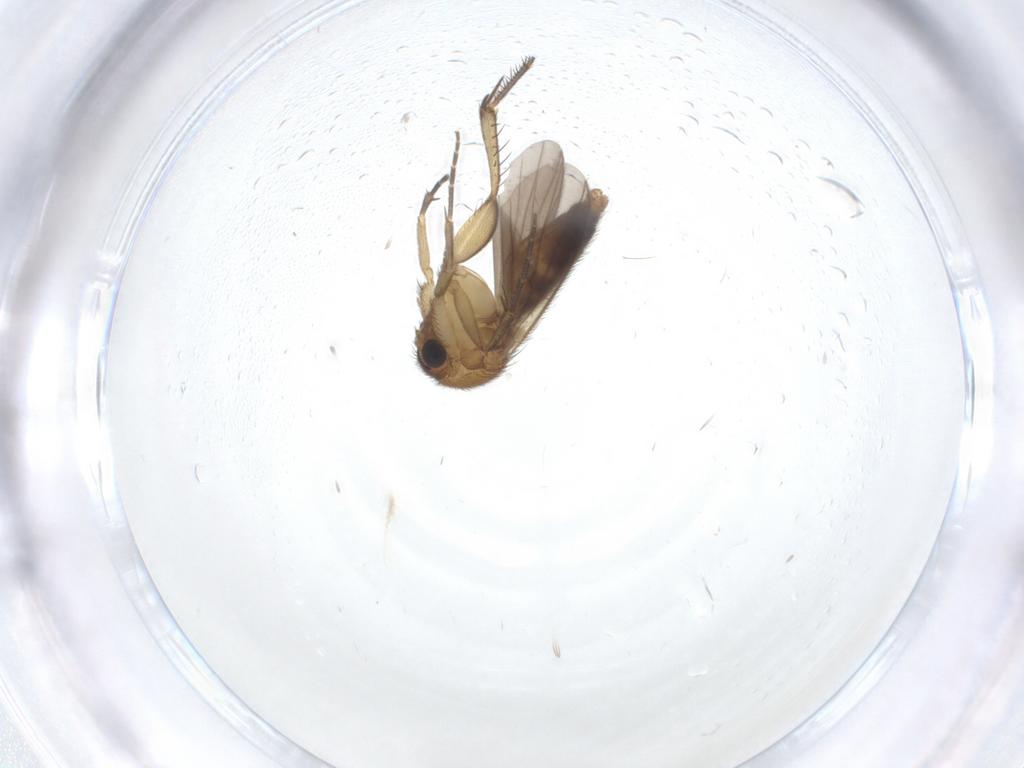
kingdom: Animalia
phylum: Arthropoda
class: Insecta
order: Diptera
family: Mycetophilidae
